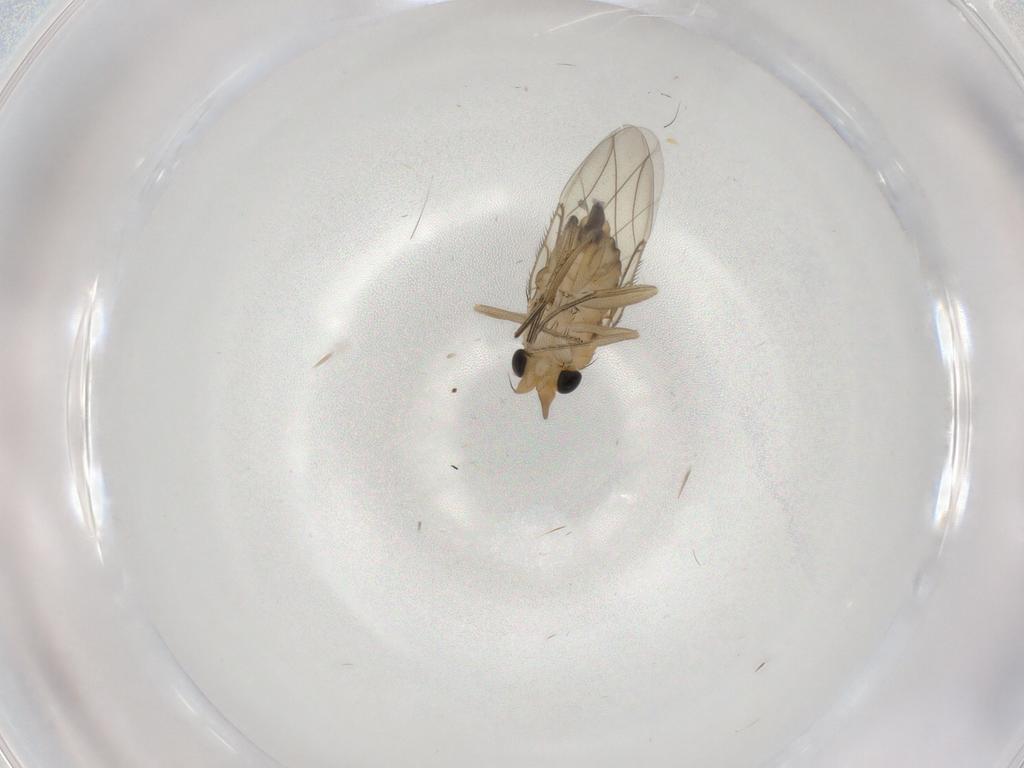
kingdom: Animalia
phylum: Arthropoda
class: Insecta
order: Diptera
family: Phoridae
